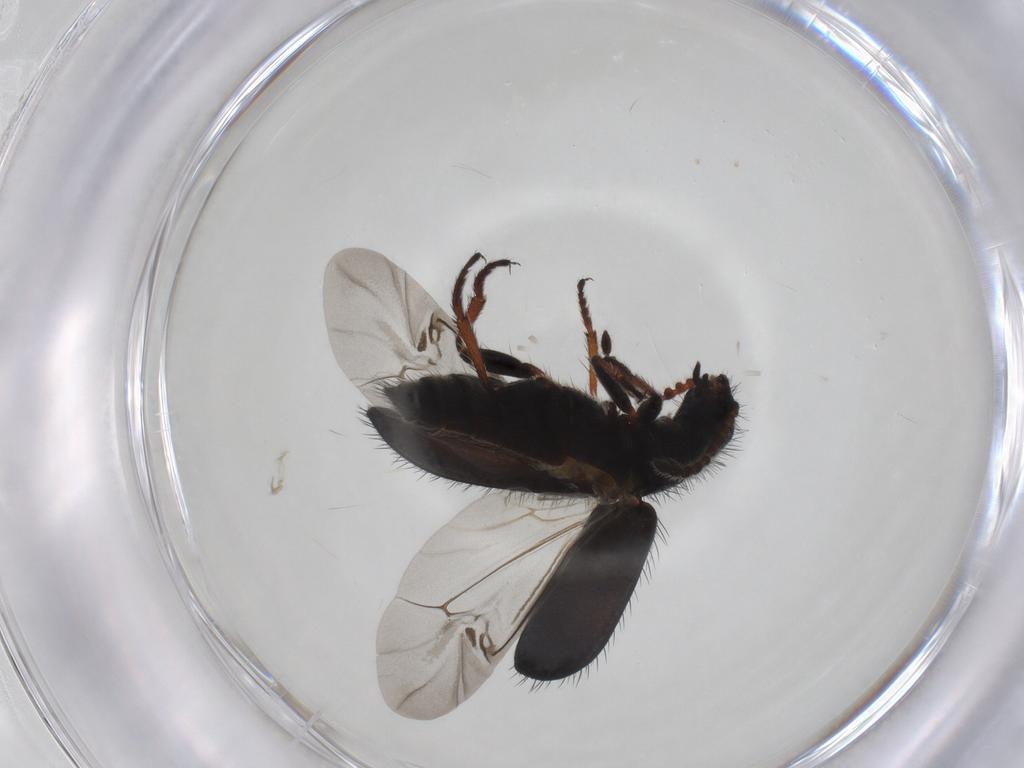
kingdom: Animalia
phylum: Arthropoda
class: Insecta
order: Coleoptera
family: Melyridae
